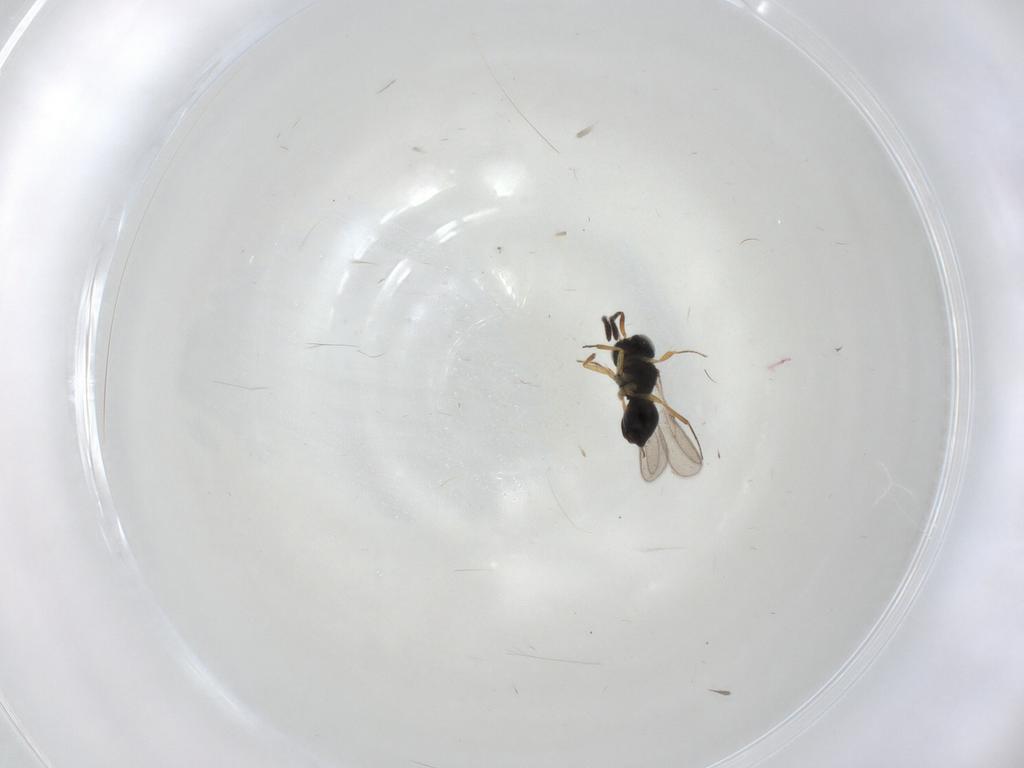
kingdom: Animalia
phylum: Arthropoda
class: Insecta
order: Hymenoptera
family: Scelionidae
